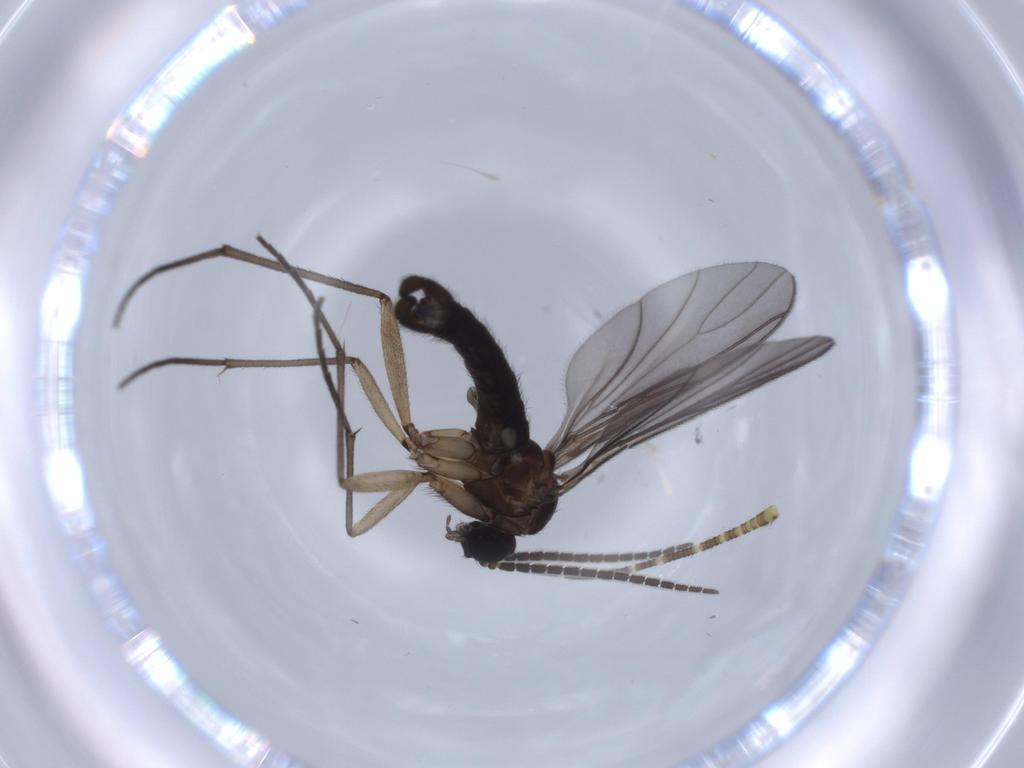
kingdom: Animalia
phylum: Arthropoda
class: Insecta
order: Diptera
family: Sciaridae
